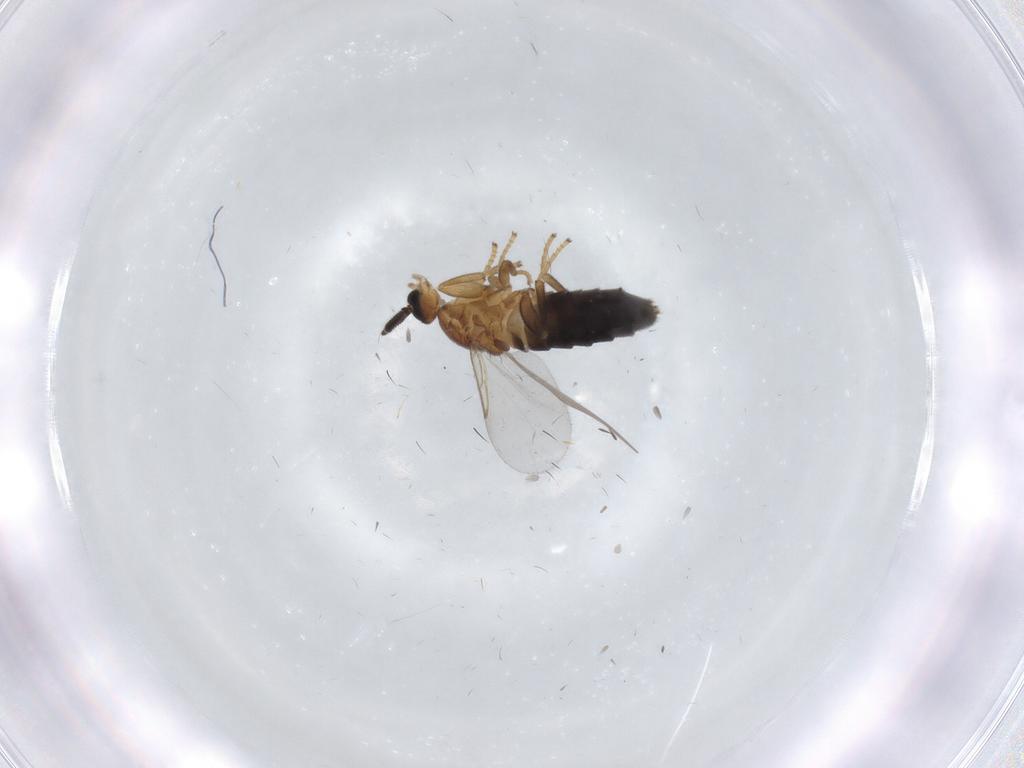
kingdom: Animalia
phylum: Arthropoda
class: Insecta
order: Diptera
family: Scatopsidae
